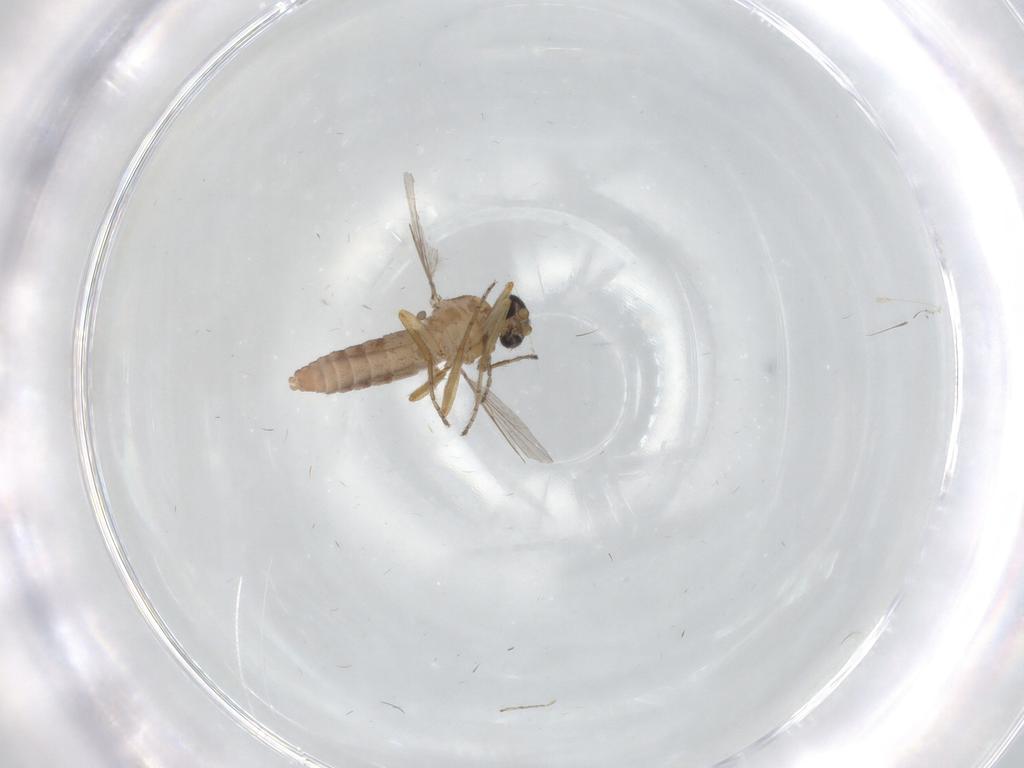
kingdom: Animalia
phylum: Arthropoda
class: Insecta
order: Diptera
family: Ceratopogonidae
